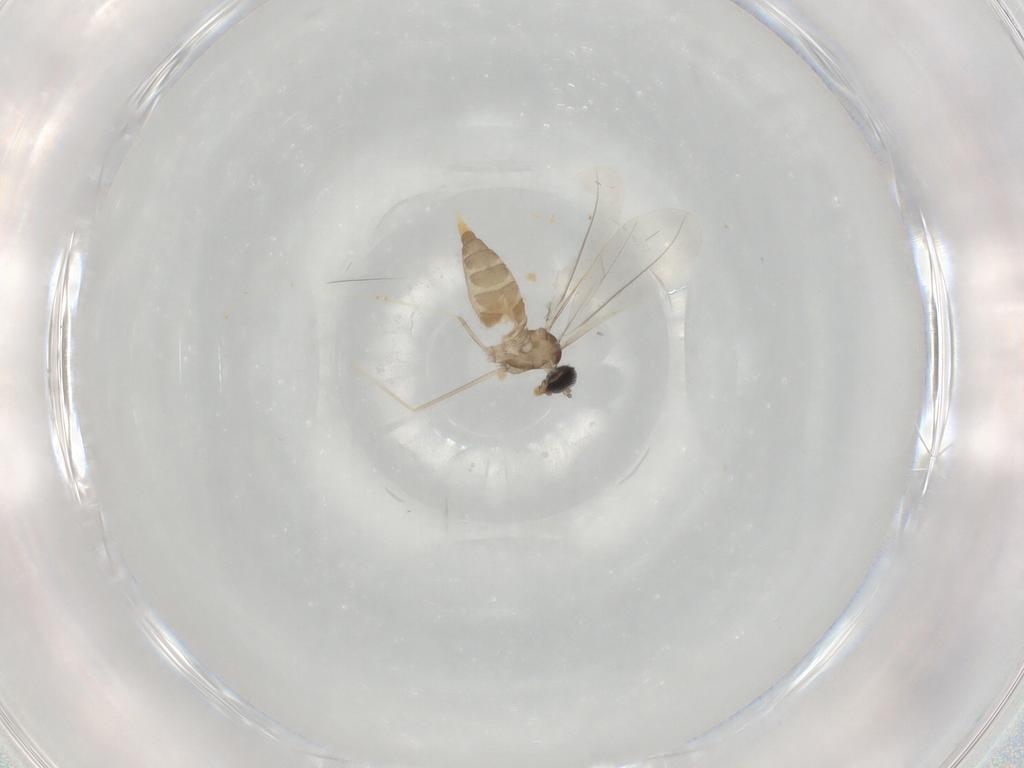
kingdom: Animalia
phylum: Arthropoda
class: Insecta
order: Diptera
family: Cecidomyiidae
